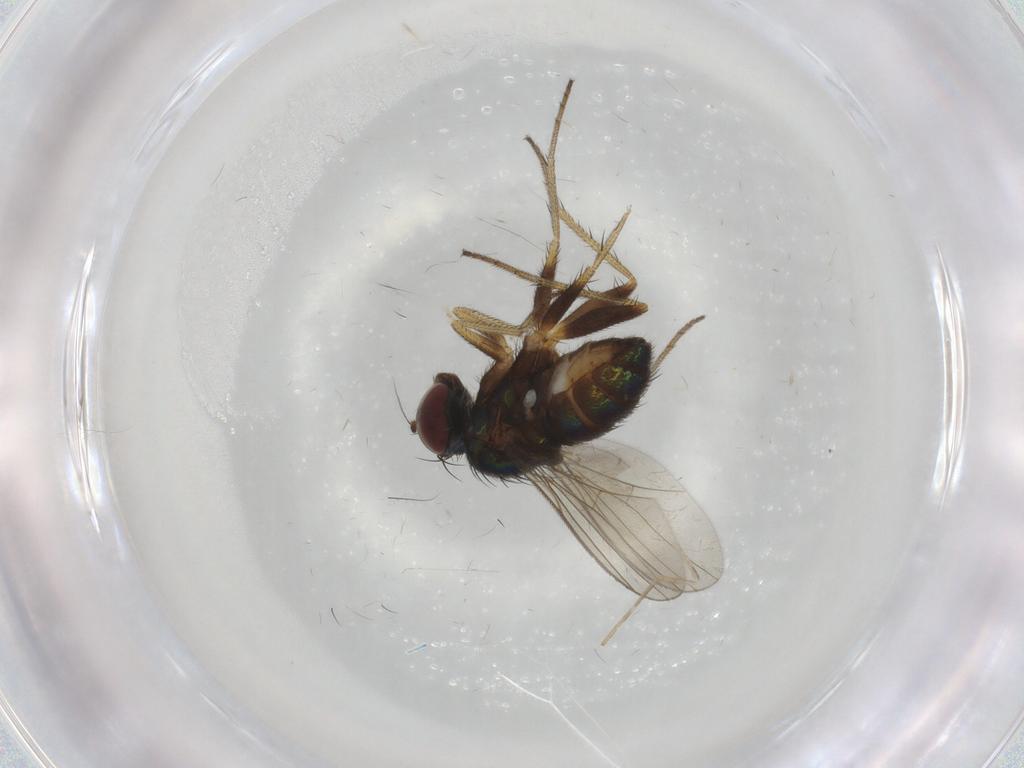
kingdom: Animalia
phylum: Arthropoda
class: Insecta
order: Diptera
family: Dolichopodidae
